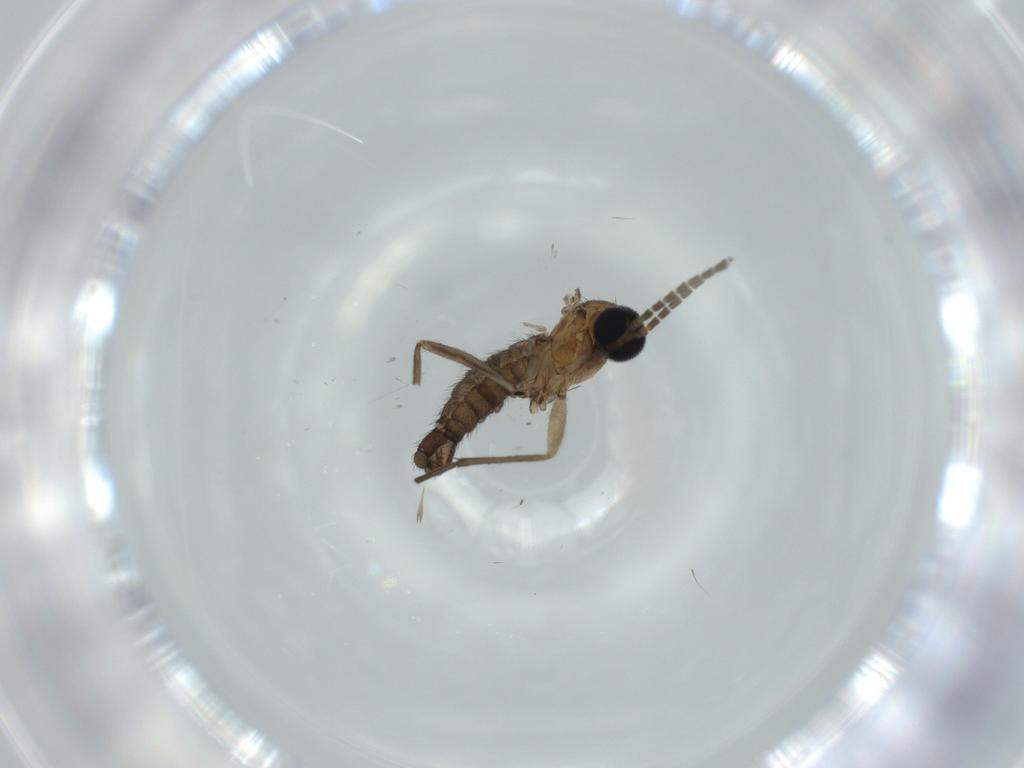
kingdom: Animalia
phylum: Arthropoda
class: Insecta
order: Diptera
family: Sciaridae
